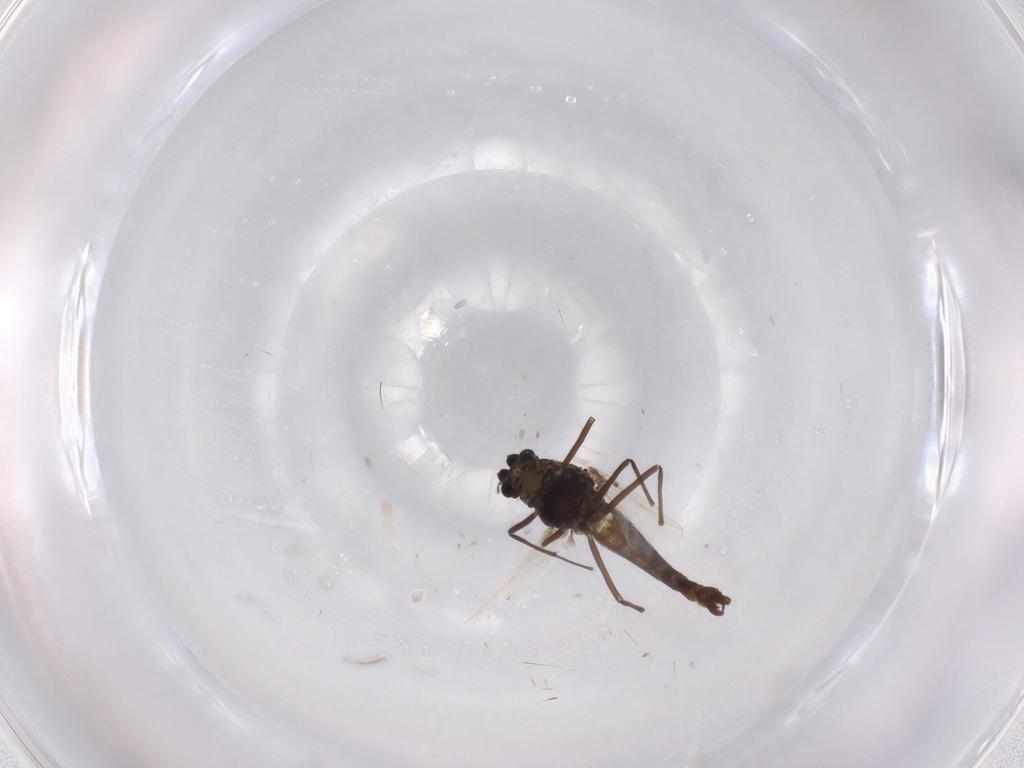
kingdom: Animalia
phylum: Arthropoda
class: Insecta
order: Diptera
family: Chironomidae
